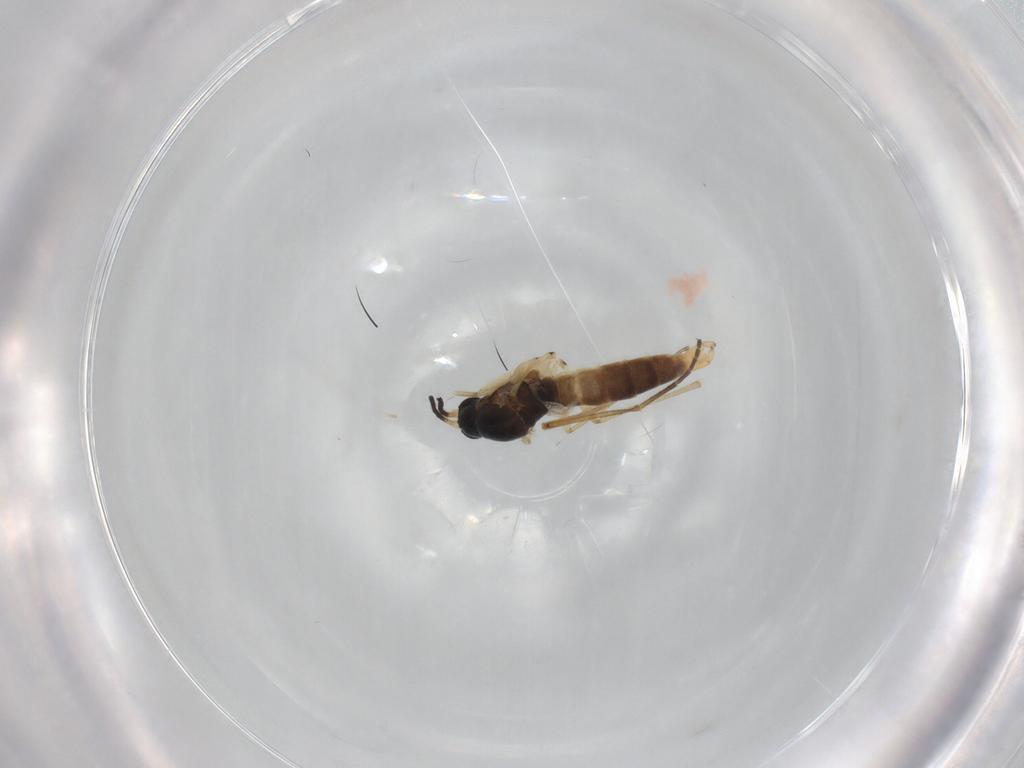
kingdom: Animalia
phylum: Arthropoda
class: Insecta
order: Diptera
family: Sciaridae
